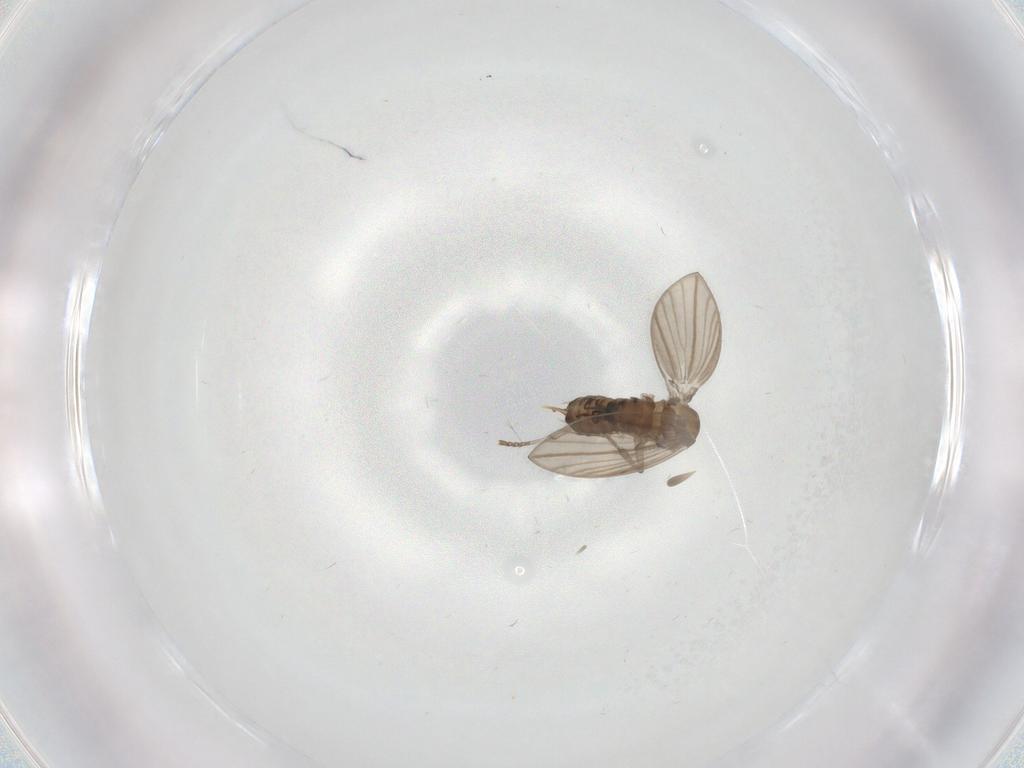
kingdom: Animalia
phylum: Arthropoda
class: Insecta
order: Diptera
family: Psychodidae
